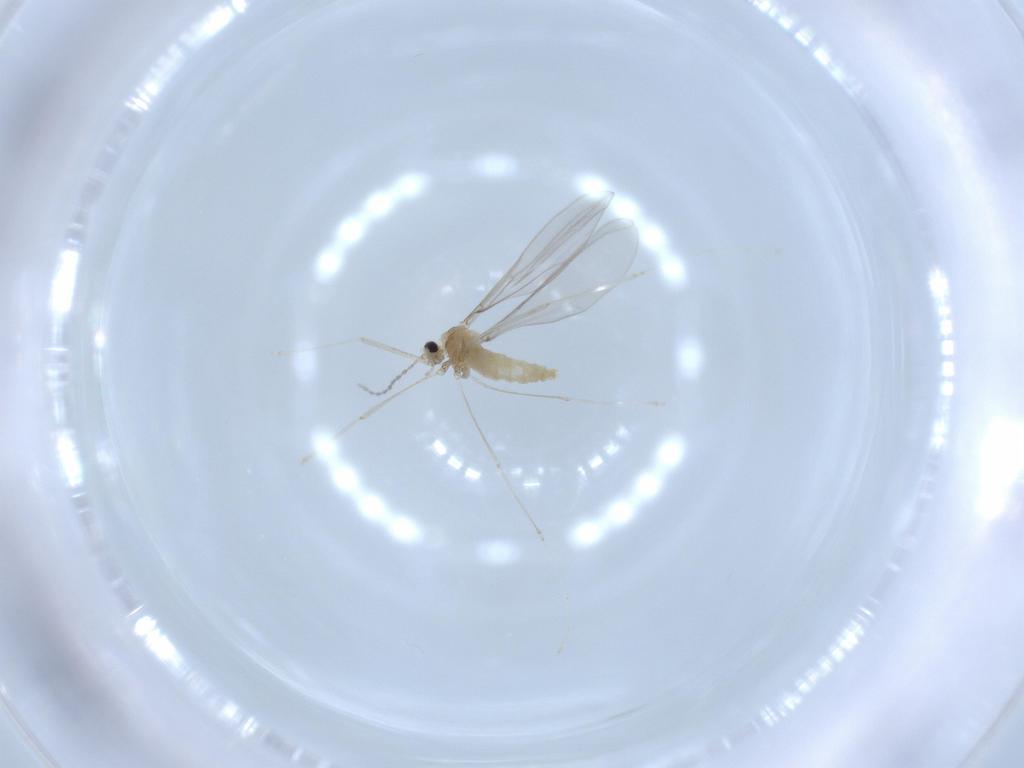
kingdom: Animalia
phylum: Arthropoda
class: Insecta
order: Diptera
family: Cecidomyiidae
